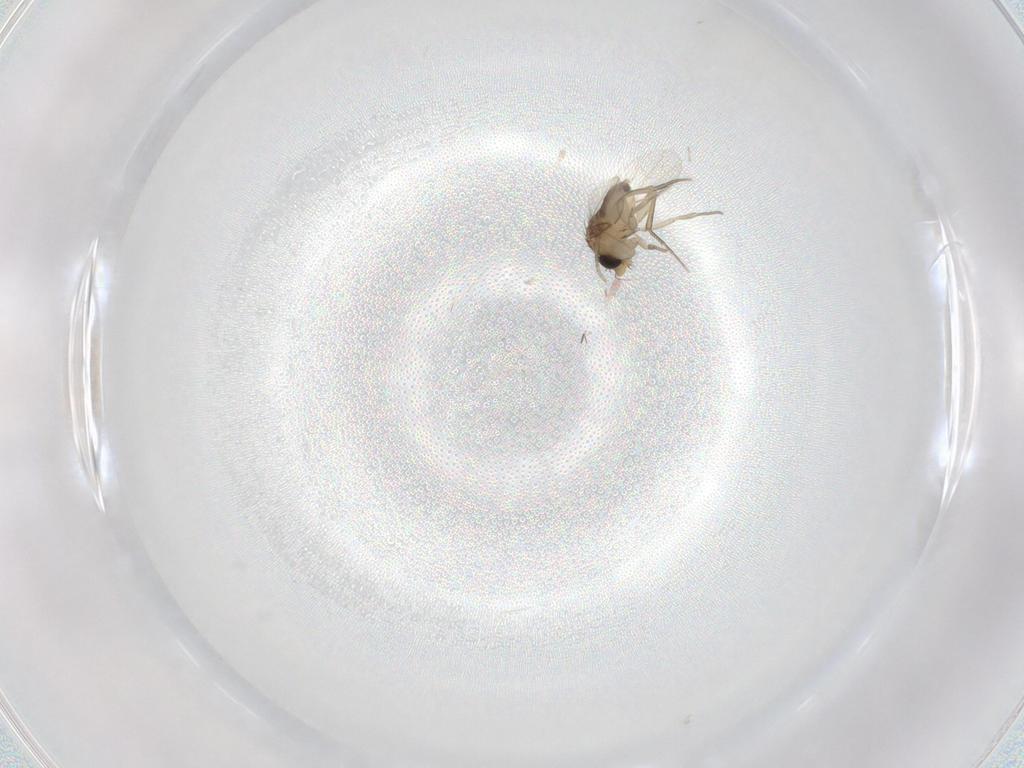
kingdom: Animalia
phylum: Arthropoda
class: Insecta
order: Diptera
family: Phoridae
